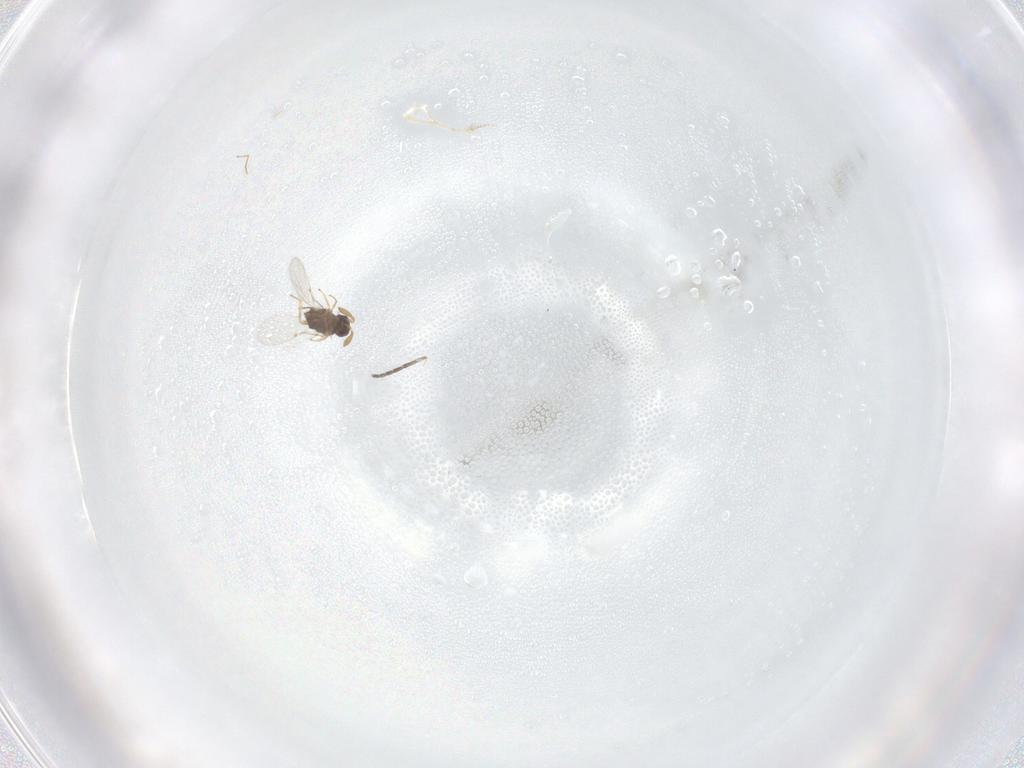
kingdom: Animalia
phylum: Arthropoda
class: Insecta
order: Hymenoptera
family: Encyrtidae
